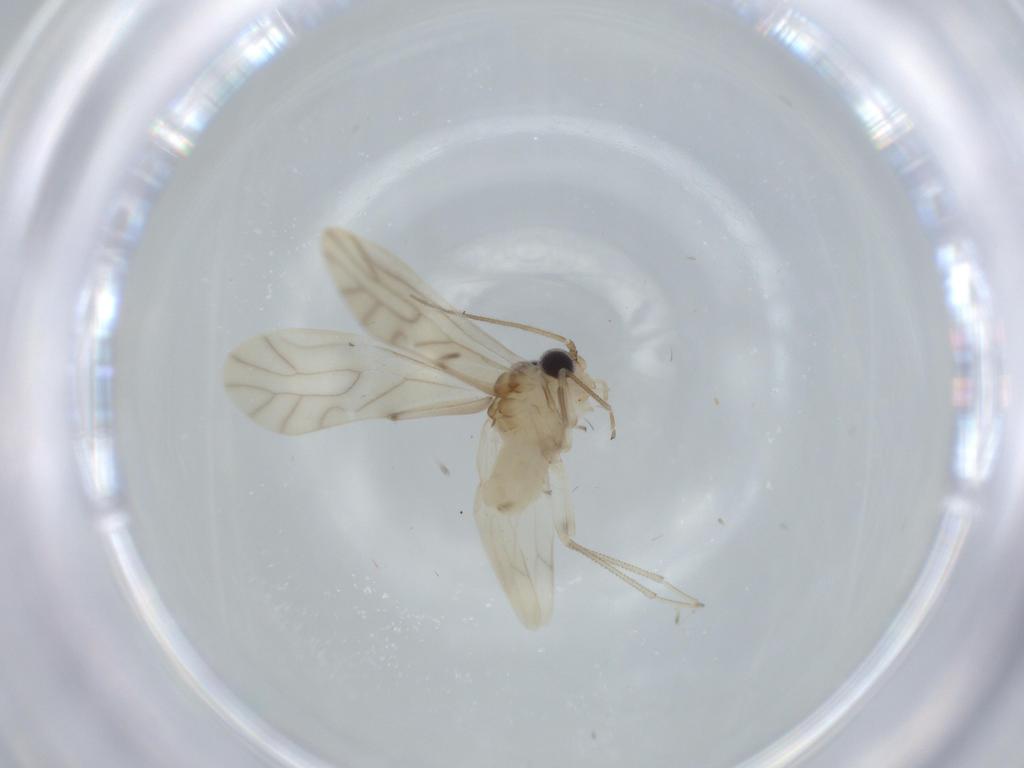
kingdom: Animalia
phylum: Arthropoda
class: Insecta
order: Psocodea
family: Caeciliusidae
